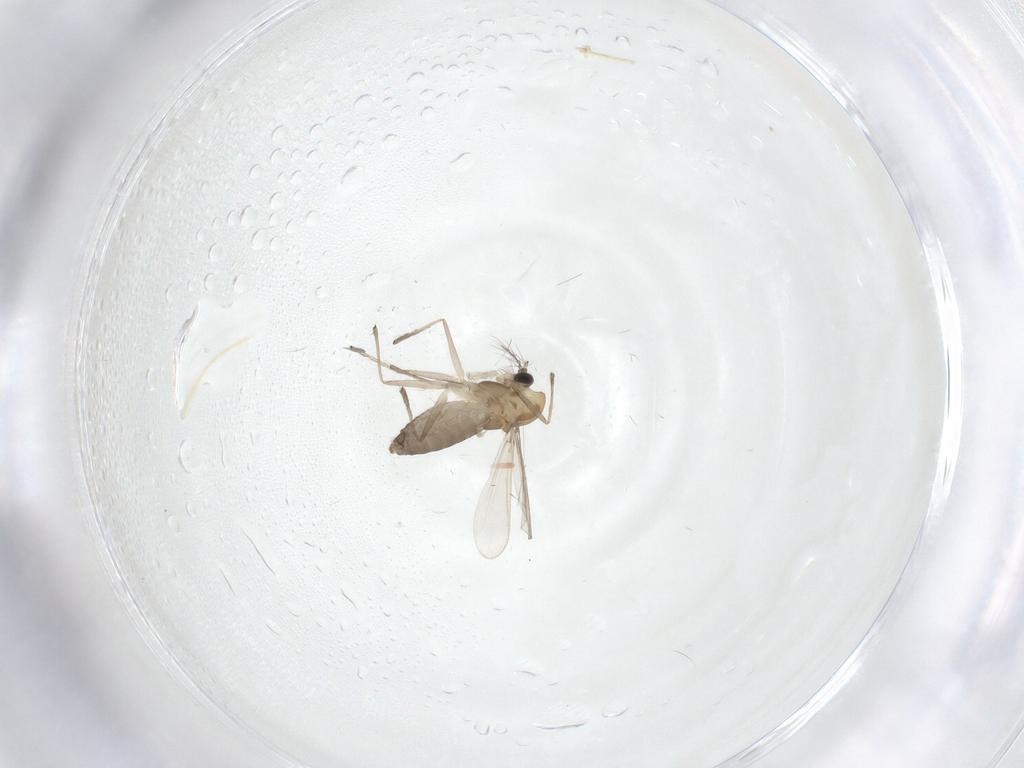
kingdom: Animalia
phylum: Arthropoda
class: Insecta
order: Diptera
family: Chironomidae
